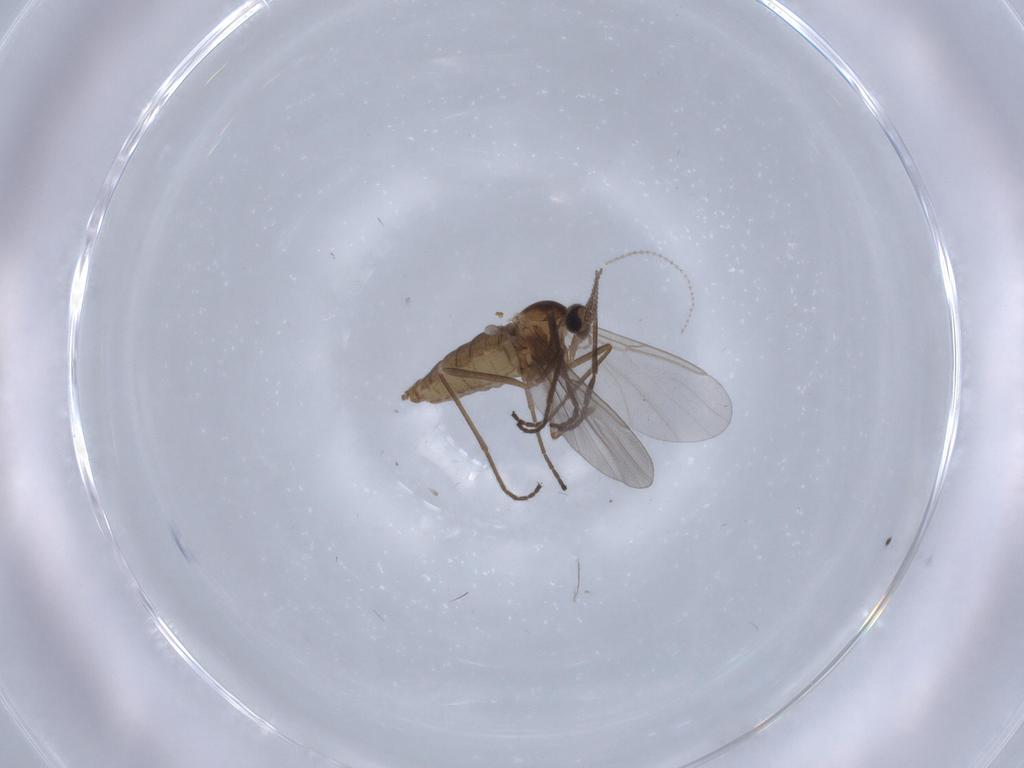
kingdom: Animalia
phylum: Arthropoda
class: Insecta
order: Diptera
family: Cecidomyiidae
